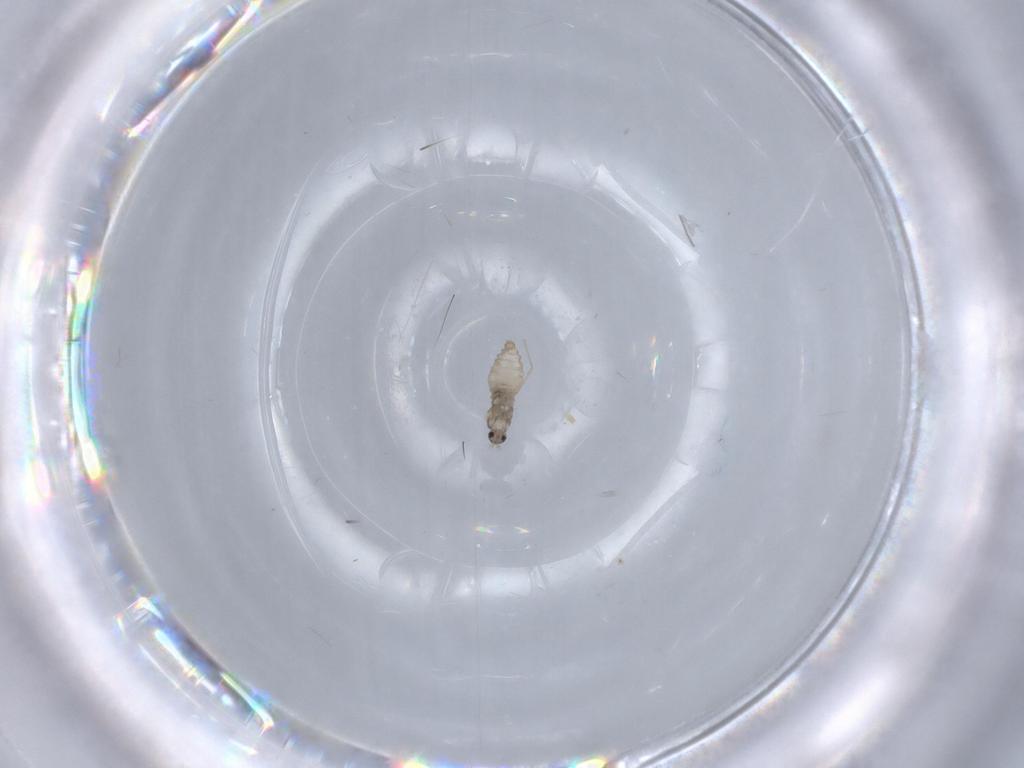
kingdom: Animalia
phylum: Arthropoda
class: Insecta
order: Diptera
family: Cecidomyiidae
